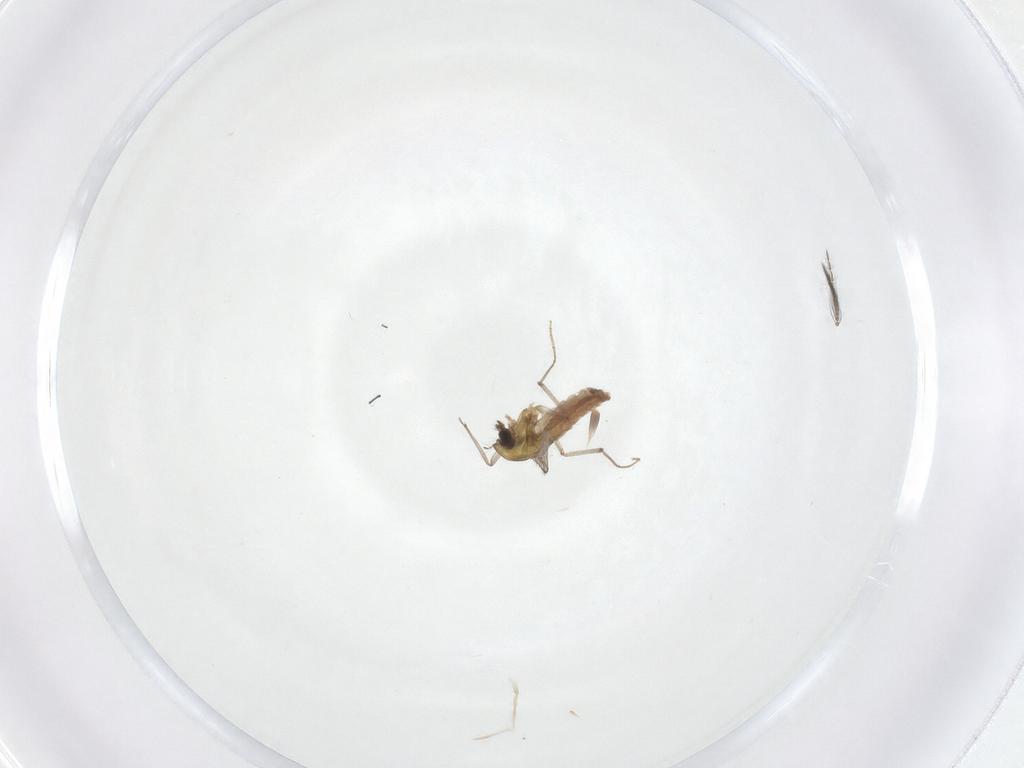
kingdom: Animalia
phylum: Arthropoda
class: Insecta
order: Diptera
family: Chironomidae
